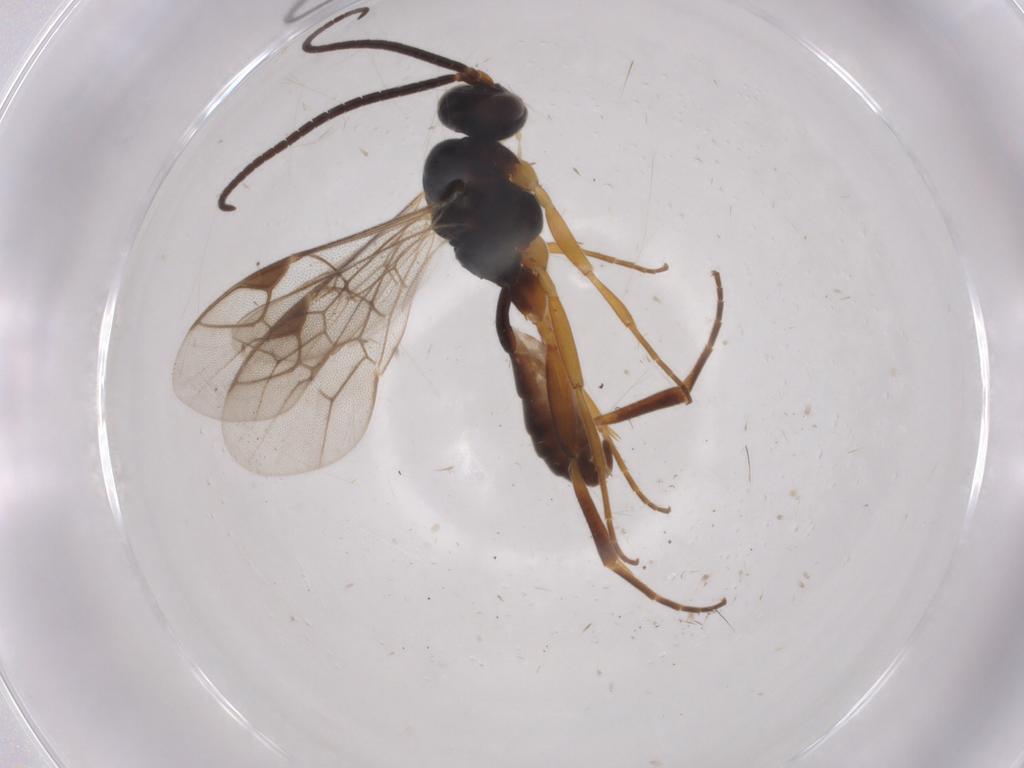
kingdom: Animalia
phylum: Arthropoda
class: Insecta
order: Hymenoptera
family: Ichneumonidae
